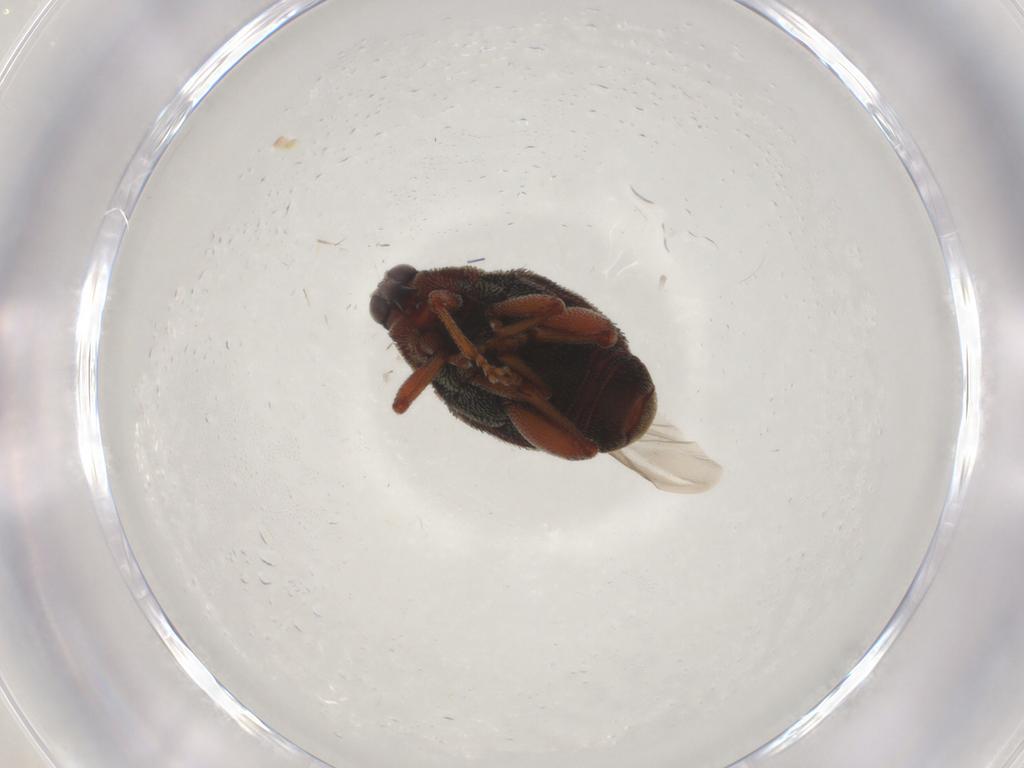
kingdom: Animalia
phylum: Arthropoda
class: Insecta
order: Coleoptera
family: Curculionidae
